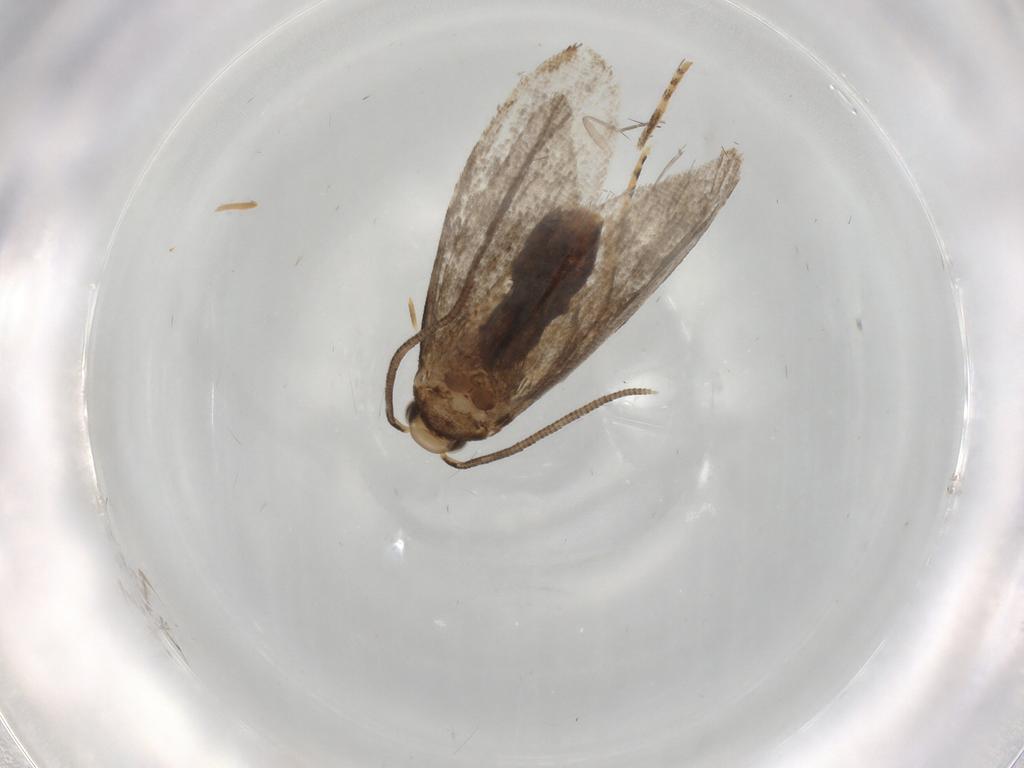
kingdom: Animalia
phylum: Arthropoda
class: Insecta
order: Lepidoptera
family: Dryadaulidae
